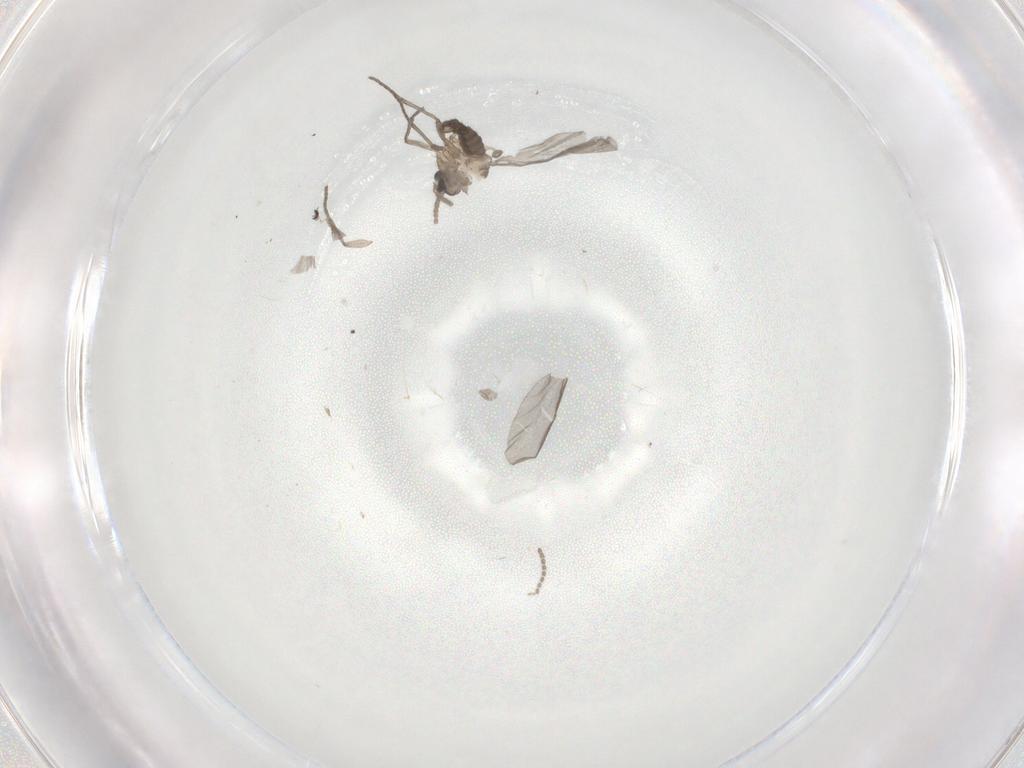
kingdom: Animalia
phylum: Arthropoda
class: Insecta
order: Diptera
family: Sciaridae
